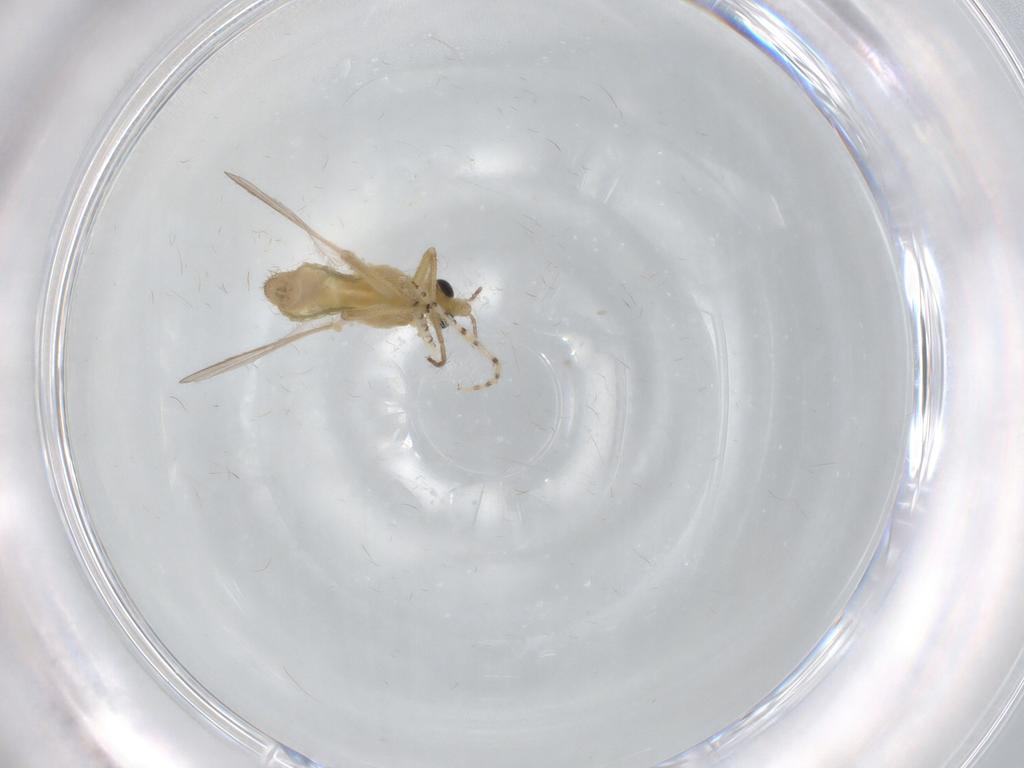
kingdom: Animalia
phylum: Arthropoda
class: Insecta
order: Diptera
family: Chironomidae
